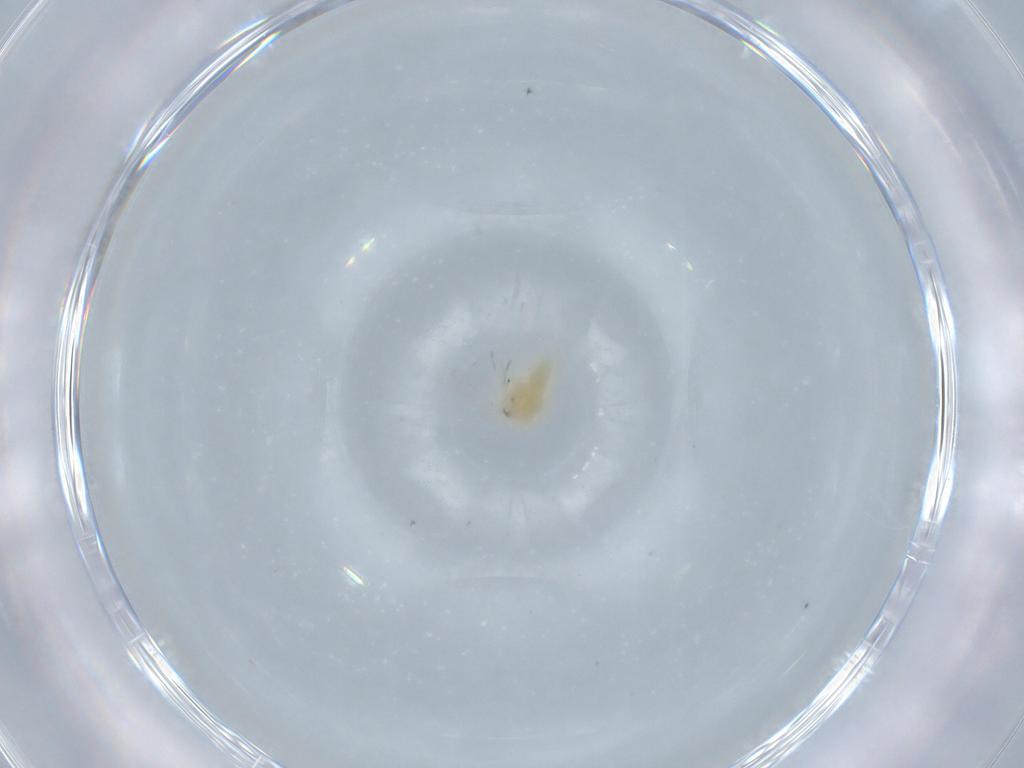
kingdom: Animalia
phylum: Arthropoda
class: Insecta
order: Hemiptera
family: Aleyrodidae
